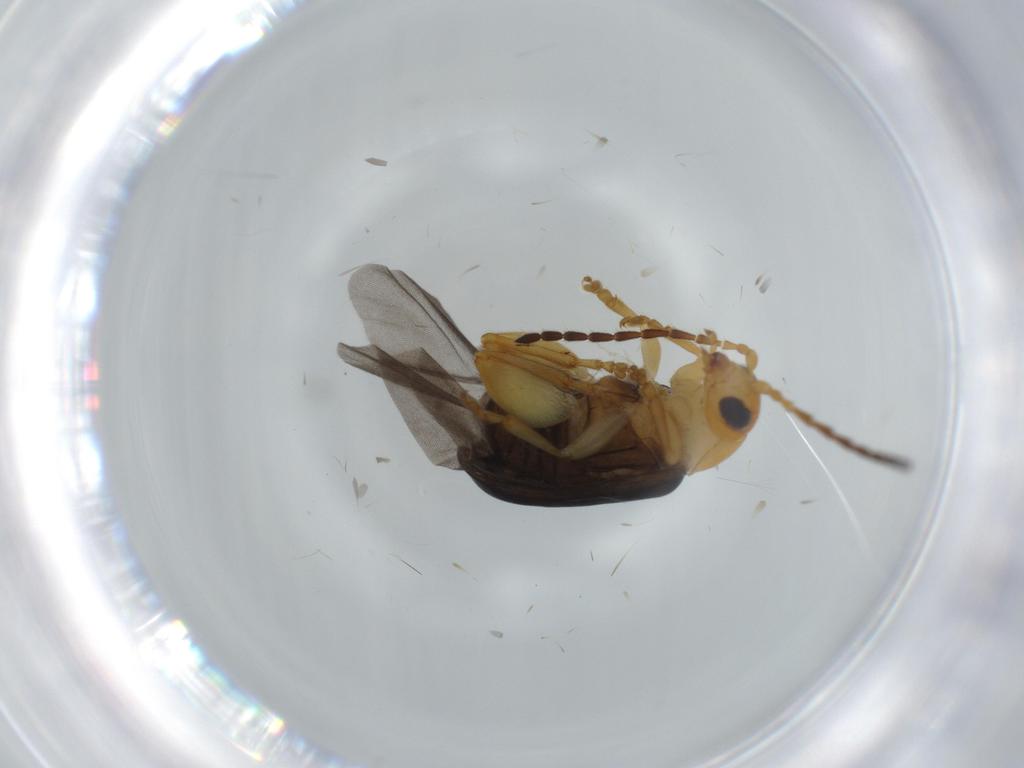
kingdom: Animalia
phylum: Arthropoda
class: Insecta
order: Coleoptera
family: Chrysomelidae
